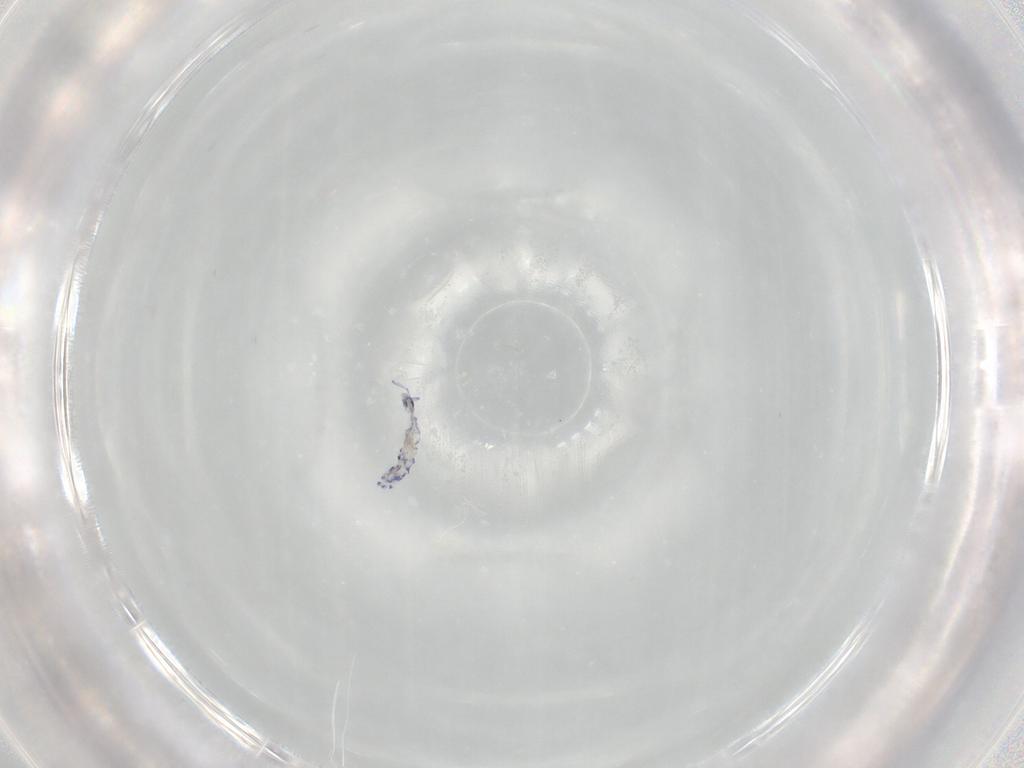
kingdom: Animalia
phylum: Arthropoda
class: Collembola
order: Entomobryomorpha
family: Entomobryidae
